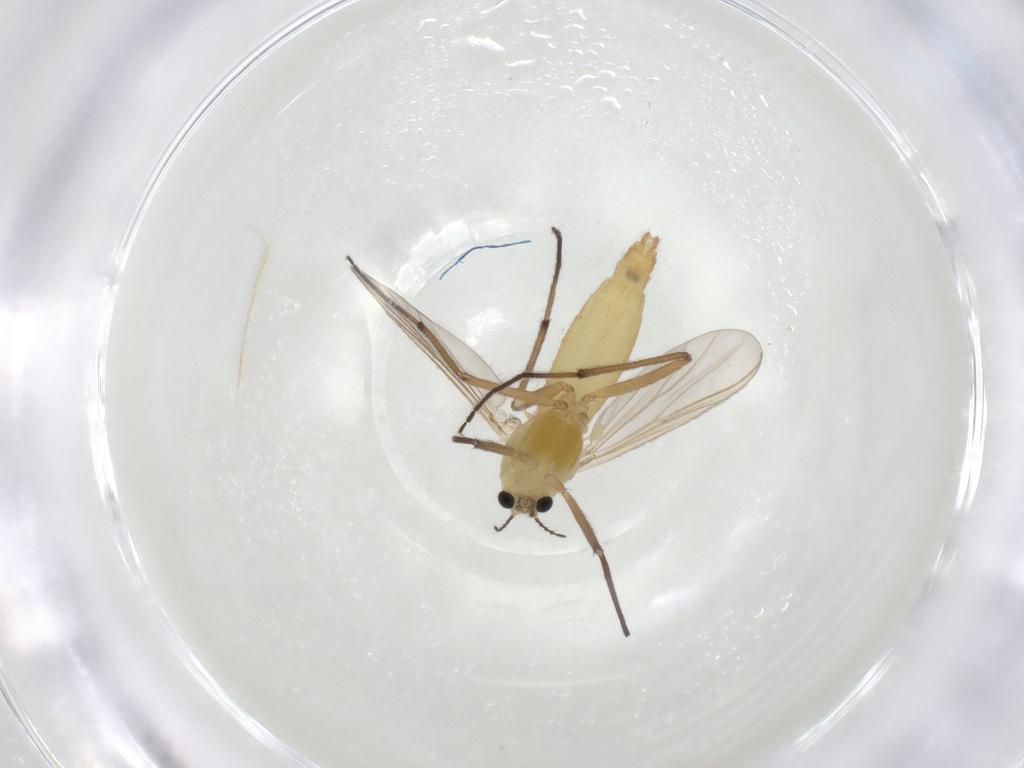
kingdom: Animalia
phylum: Arthropoda
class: Insecta
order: Diptera
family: Chironomidae
